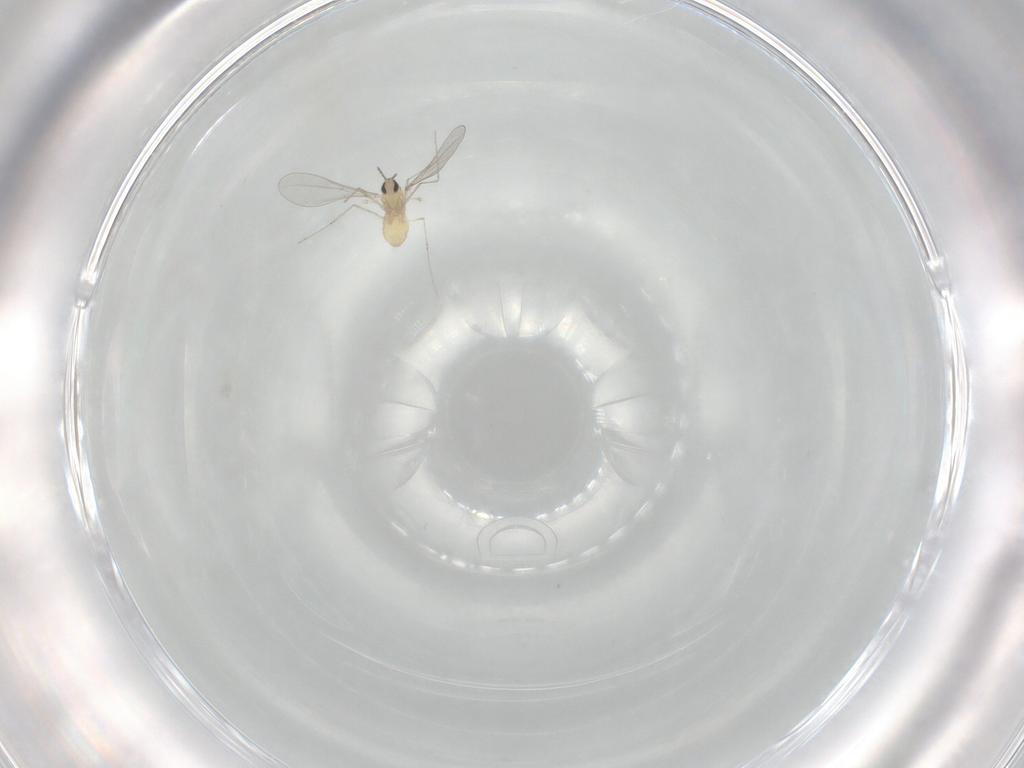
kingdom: Animalia
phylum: Arthropoda
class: Insecta
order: Diptera
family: Cecidomyiidae
